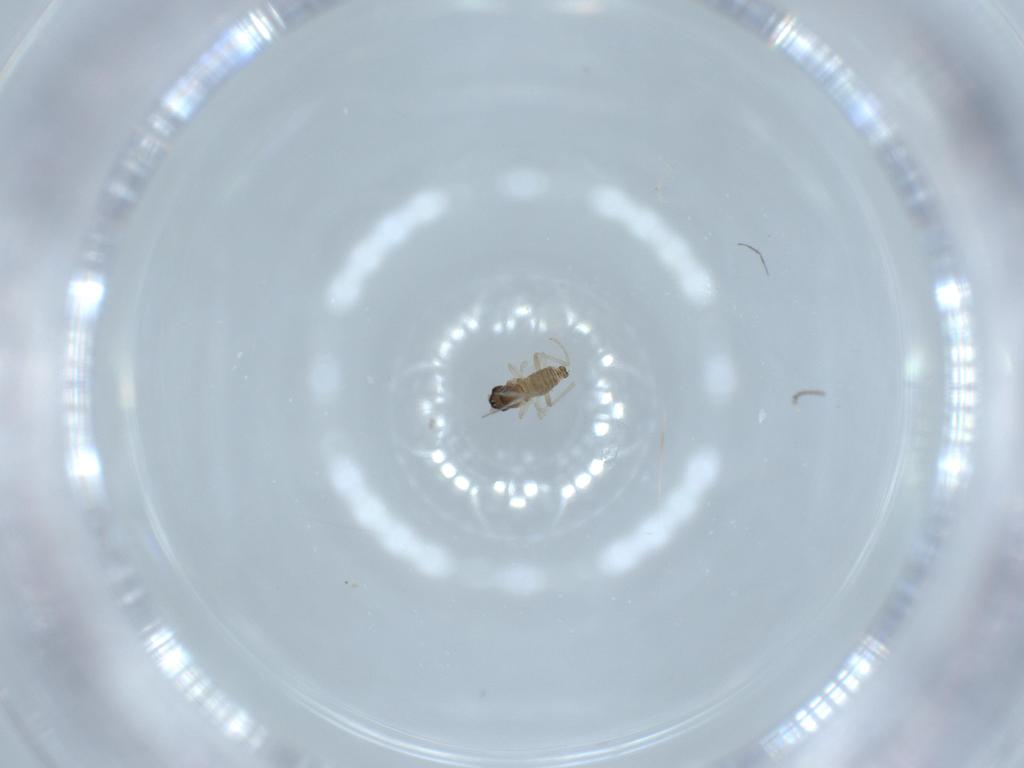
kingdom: Animalia
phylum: Arthropoda
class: Insecta
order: Diptera
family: Cecidomyiidae
